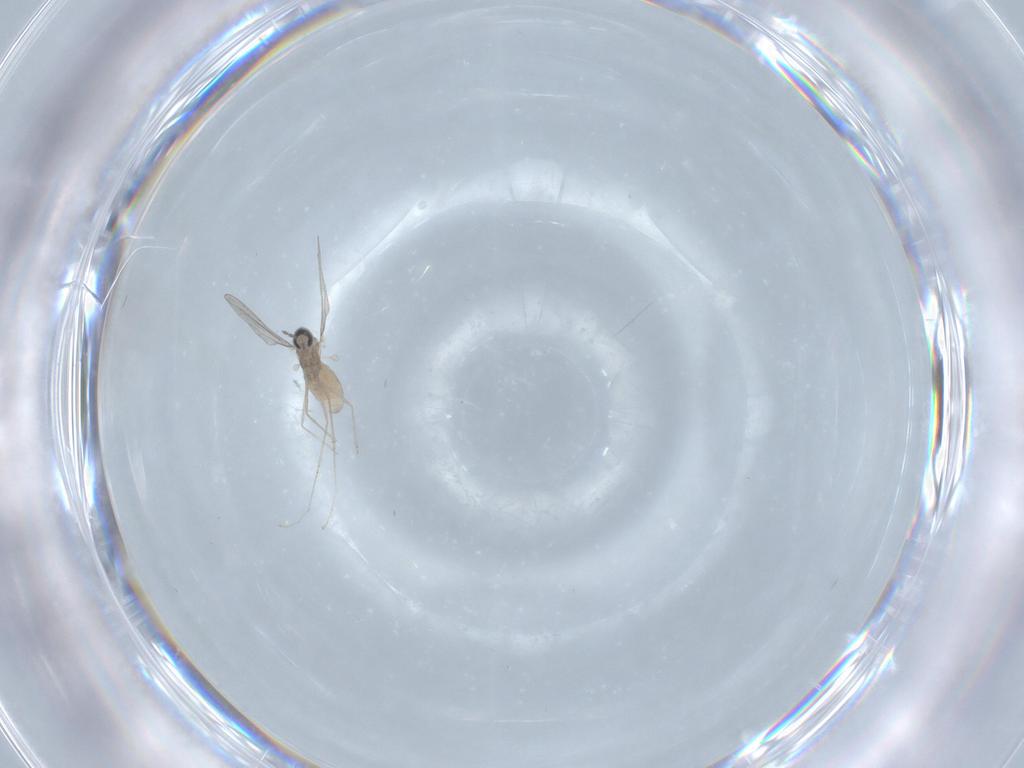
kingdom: Animalia
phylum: Arthropoda
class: Insecta
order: Diptera
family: Cecidomyiidae
